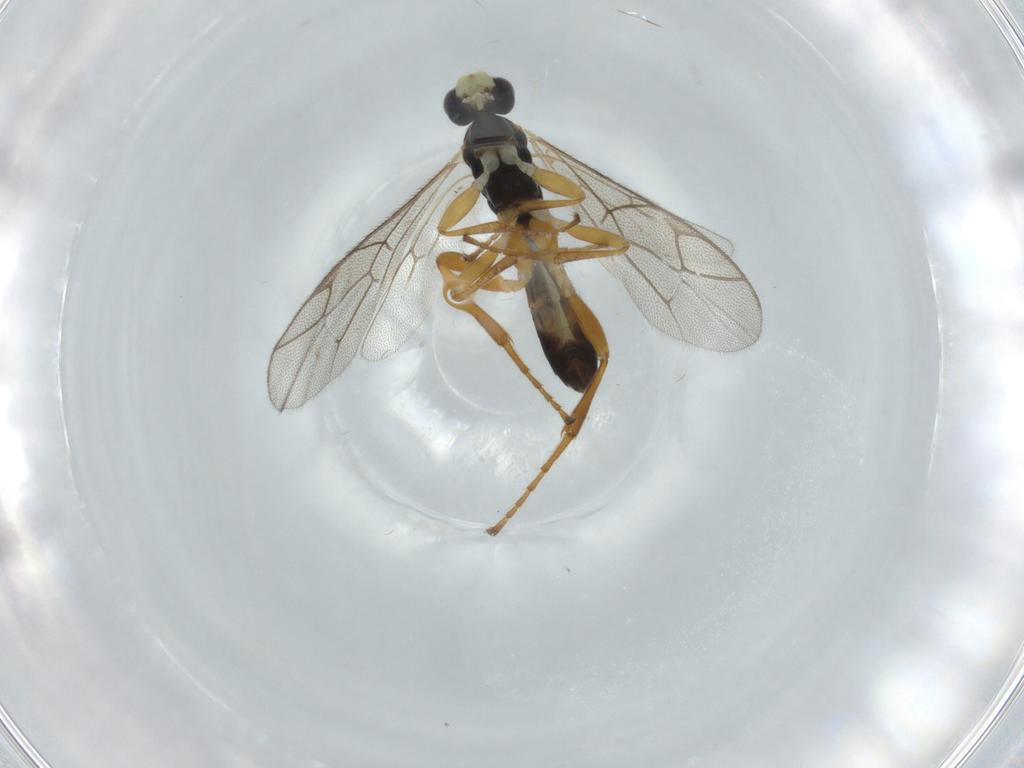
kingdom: Animalia
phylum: Arthropoda
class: Insecta
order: Hymenoptera
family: Ichneumonidae
